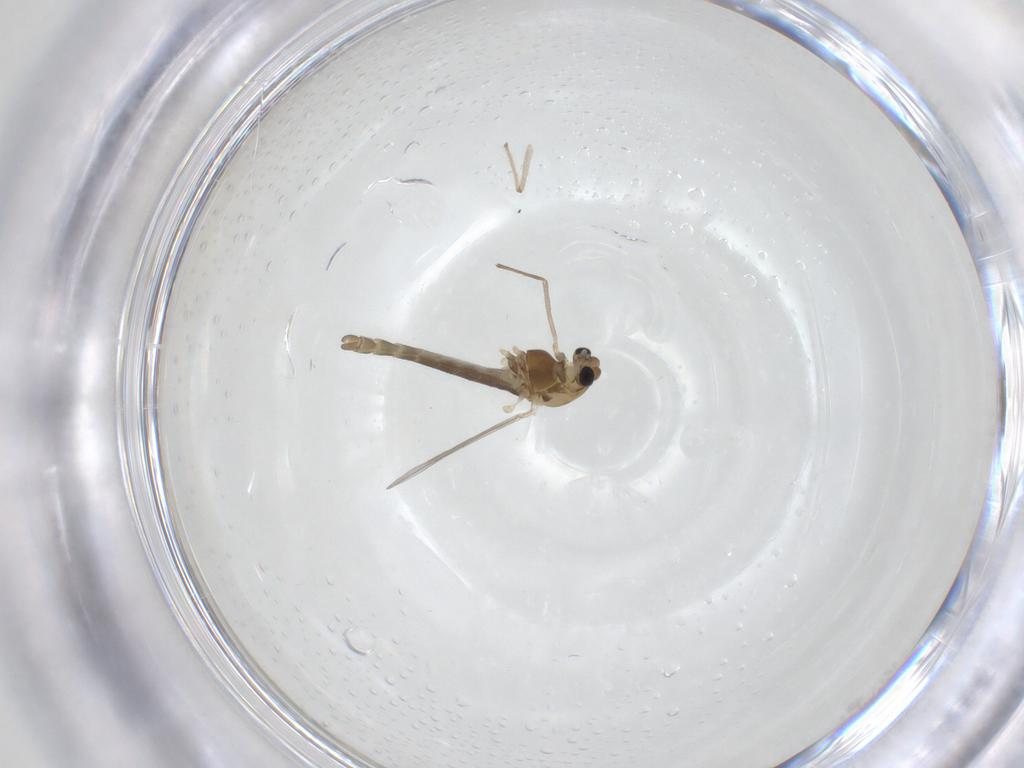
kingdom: Animalia
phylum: Arthropoda
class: Insecta
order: Diptera
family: Chironomidae
